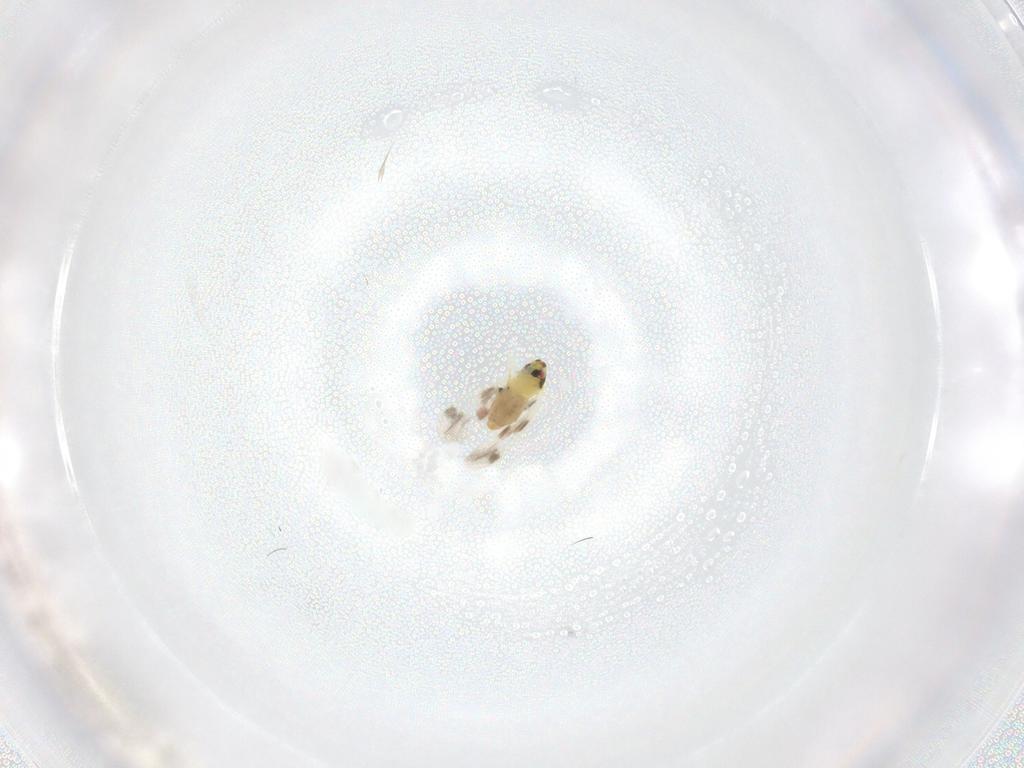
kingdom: Animalia
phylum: Arthropoda
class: Insecta
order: Hemiptera
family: Aleyrodidae
